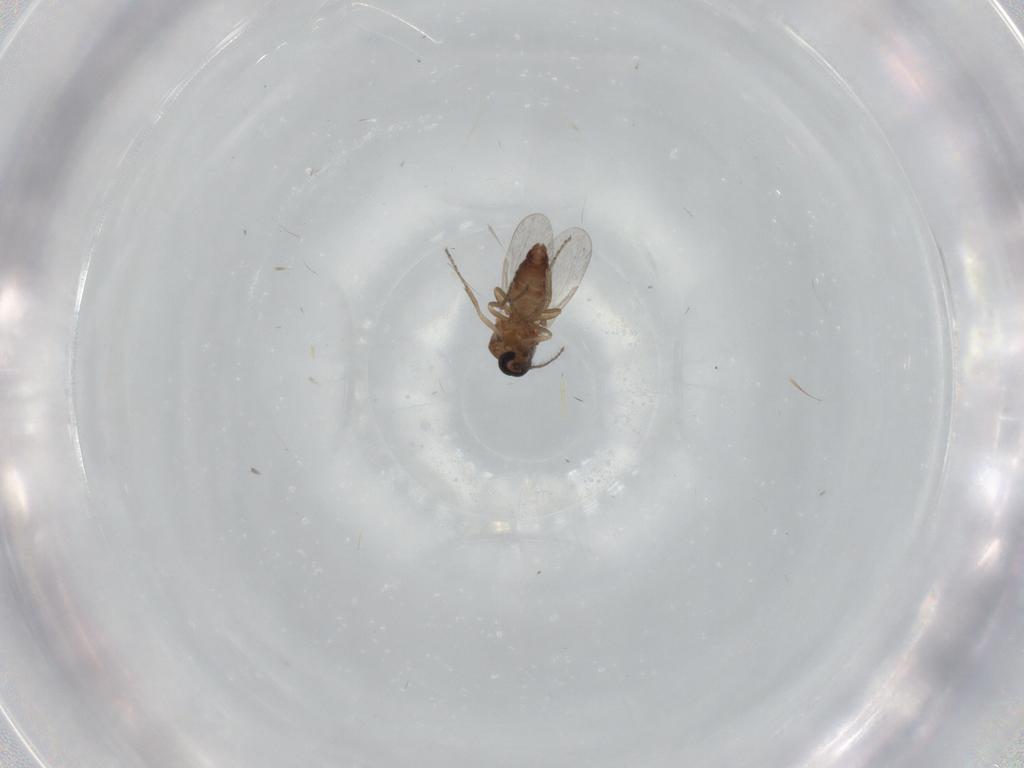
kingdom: Animalia
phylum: Arthropoda
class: Insecta
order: Diptera
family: Ceratopogonidae
